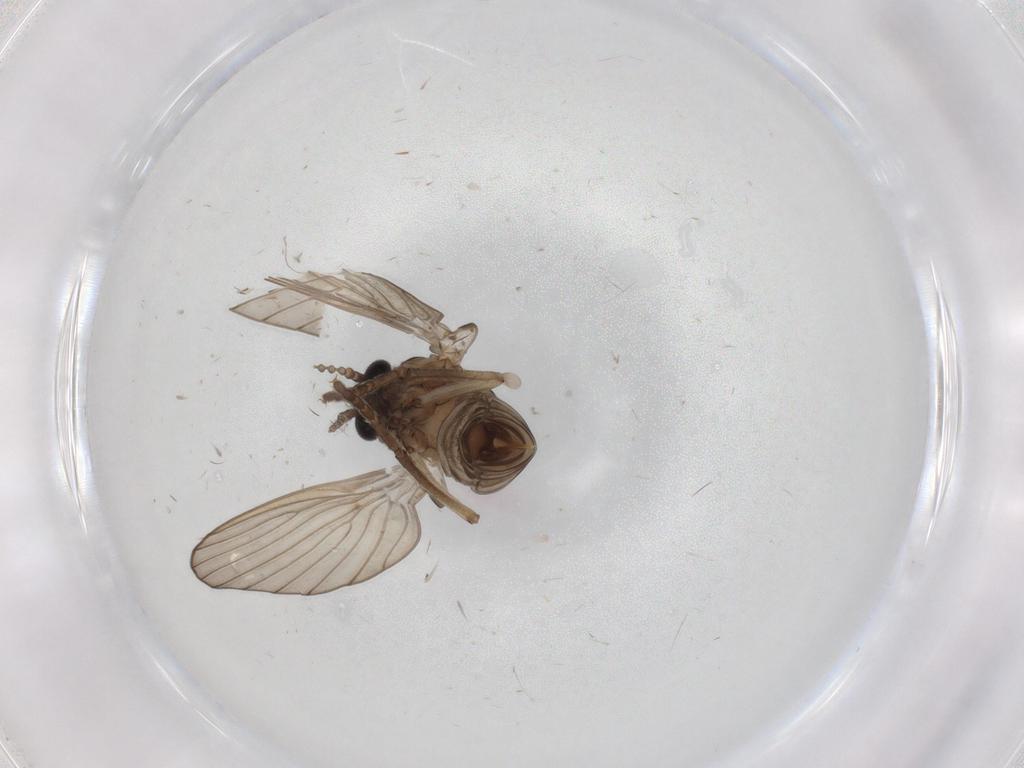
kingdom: Animalia
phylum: Arthropoda
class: Insecta
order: Diptera
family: Chloropidae
